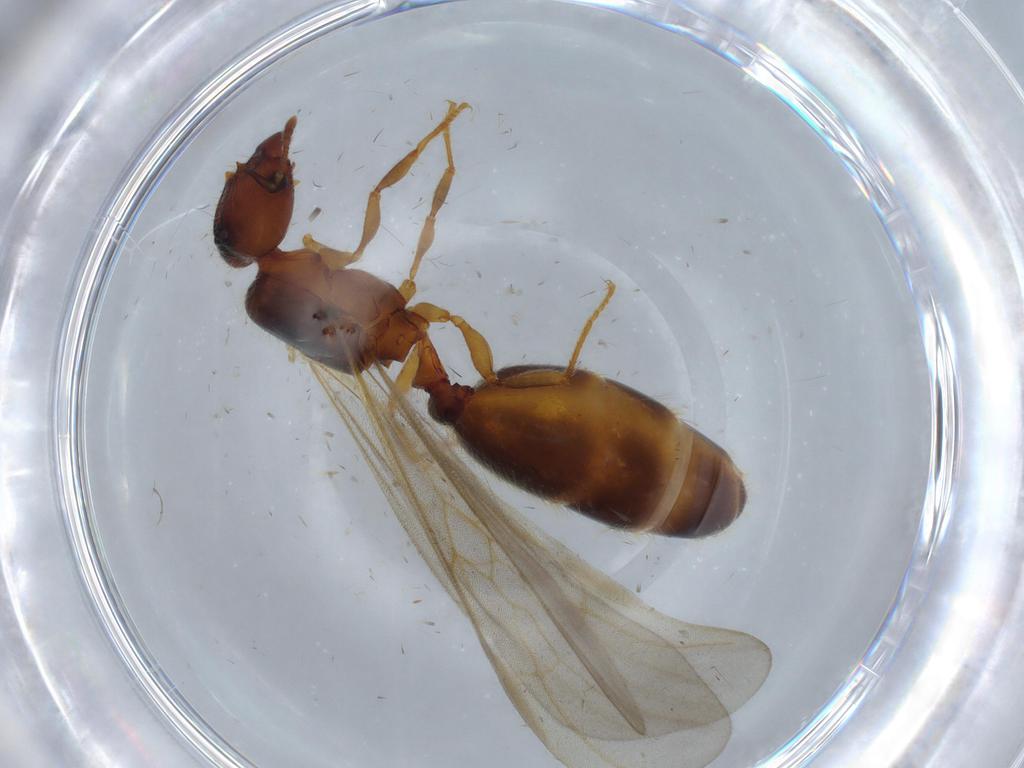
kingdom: Animalia
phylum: Arthropoda
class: Insecta
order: Hymenoptera
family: Formicidae
